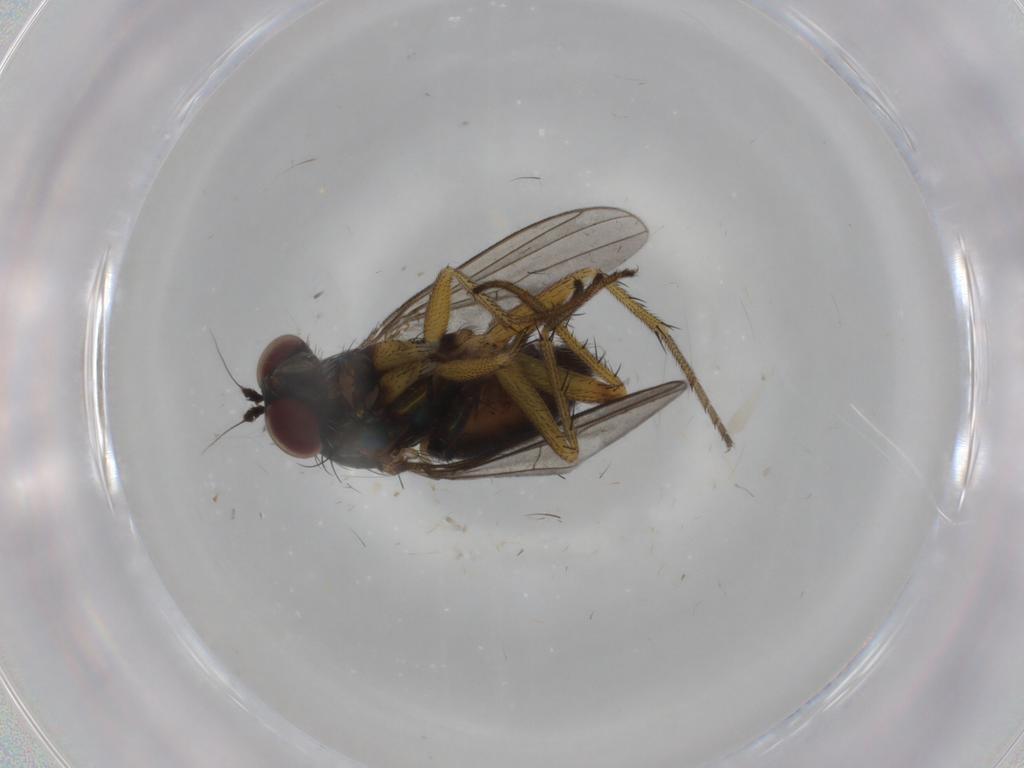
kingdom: Animalia
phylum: Arthropoda
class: Insecta
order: Diptera
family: Dolichopodidae
